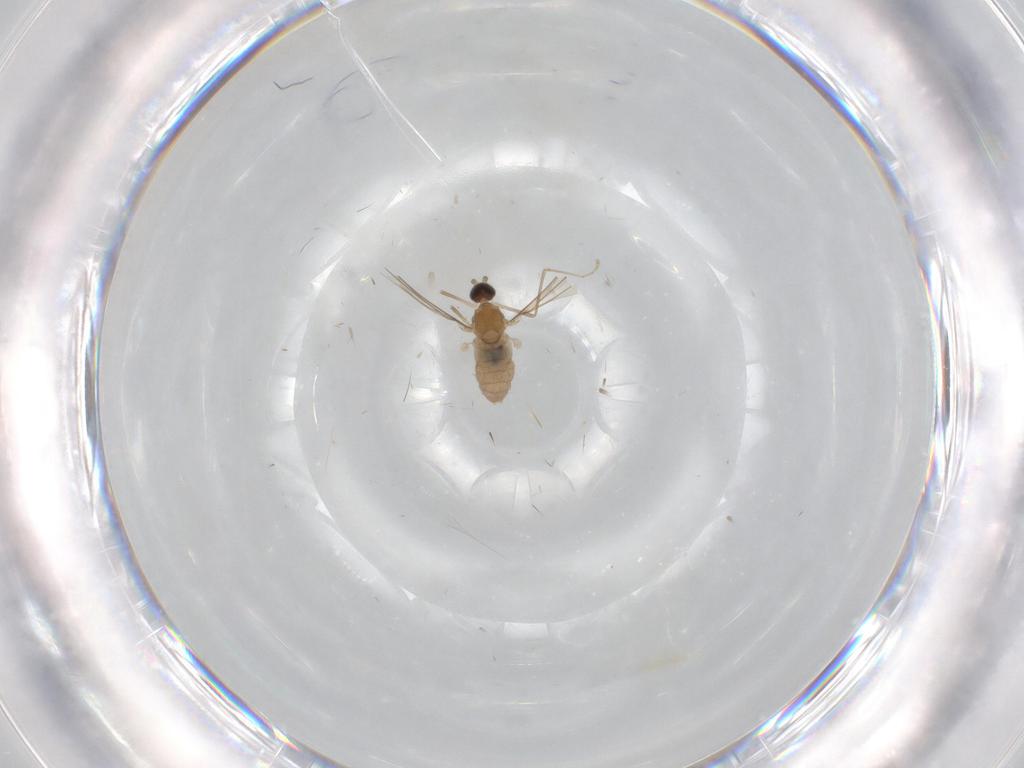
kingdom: Animalia
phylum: Arthropoda
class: Insecta
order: Diptera
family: Cecidomyiidae
